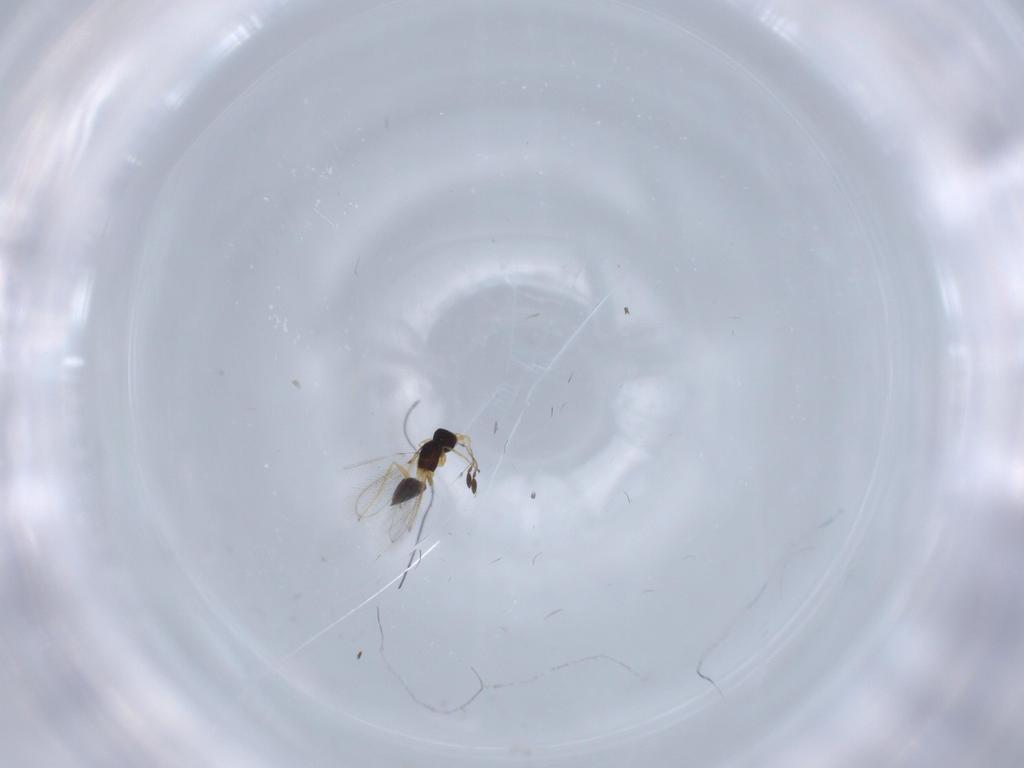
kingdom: Animalia
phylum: Arthropoda
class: Insecta
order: Hymenoptera
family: Mymaridae
